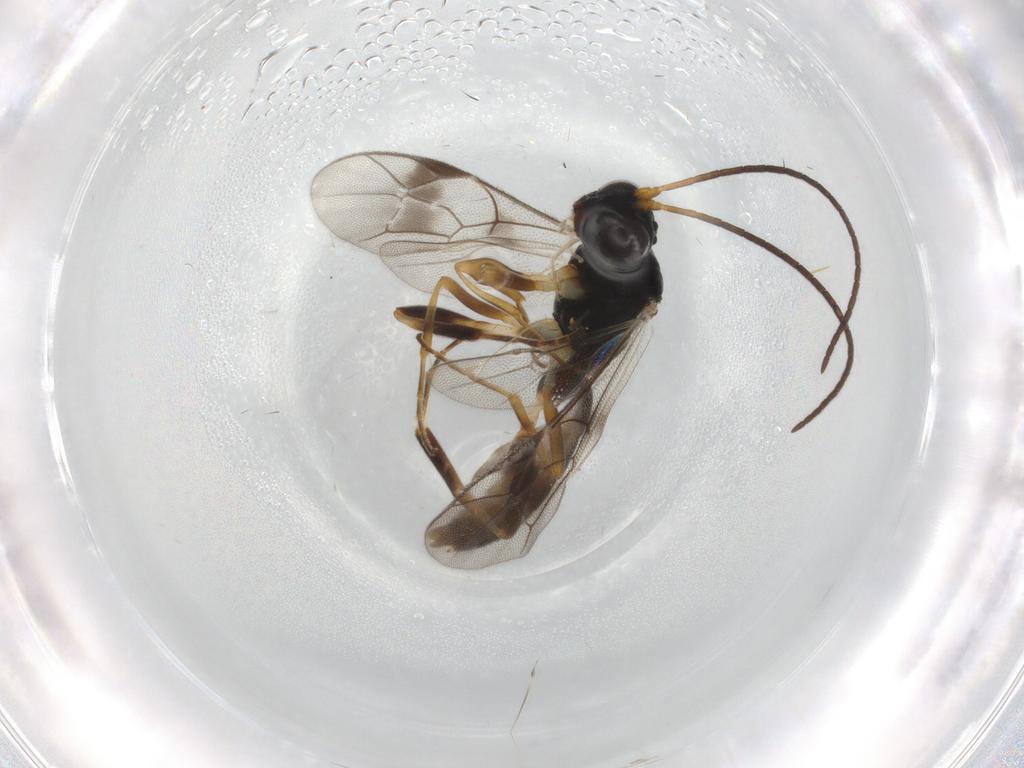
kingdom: Animalia
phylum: Arthropoda
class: Insecta
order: Hymenoptera
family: Ichneumonidae
